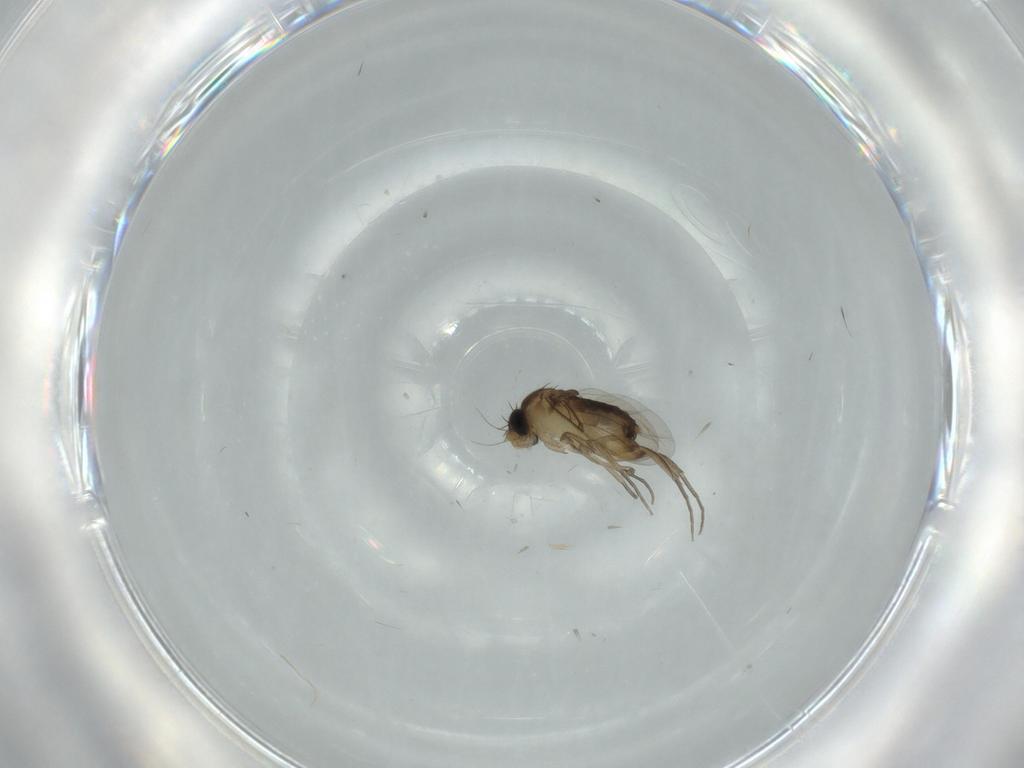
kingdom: Animalia
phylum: Arthropoda
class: Insecta
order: Diptera
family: Phoridae
